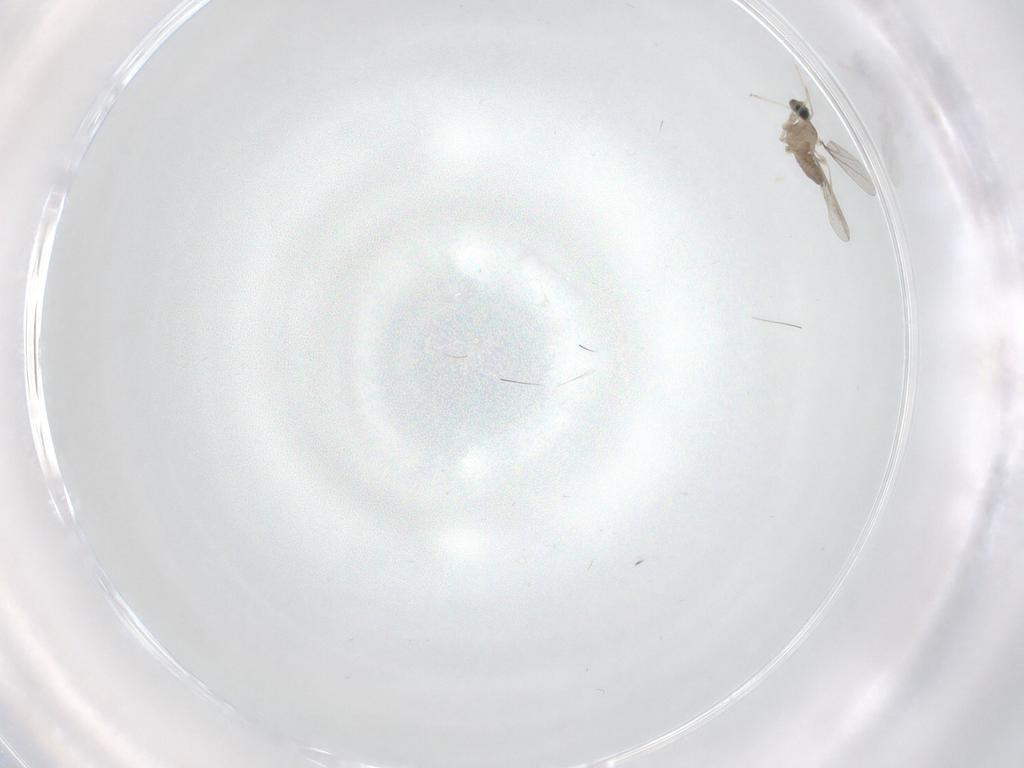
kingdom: Animalia
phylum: Arthropoda
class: Insecta
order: Diptera
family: Cecidomyiidae
